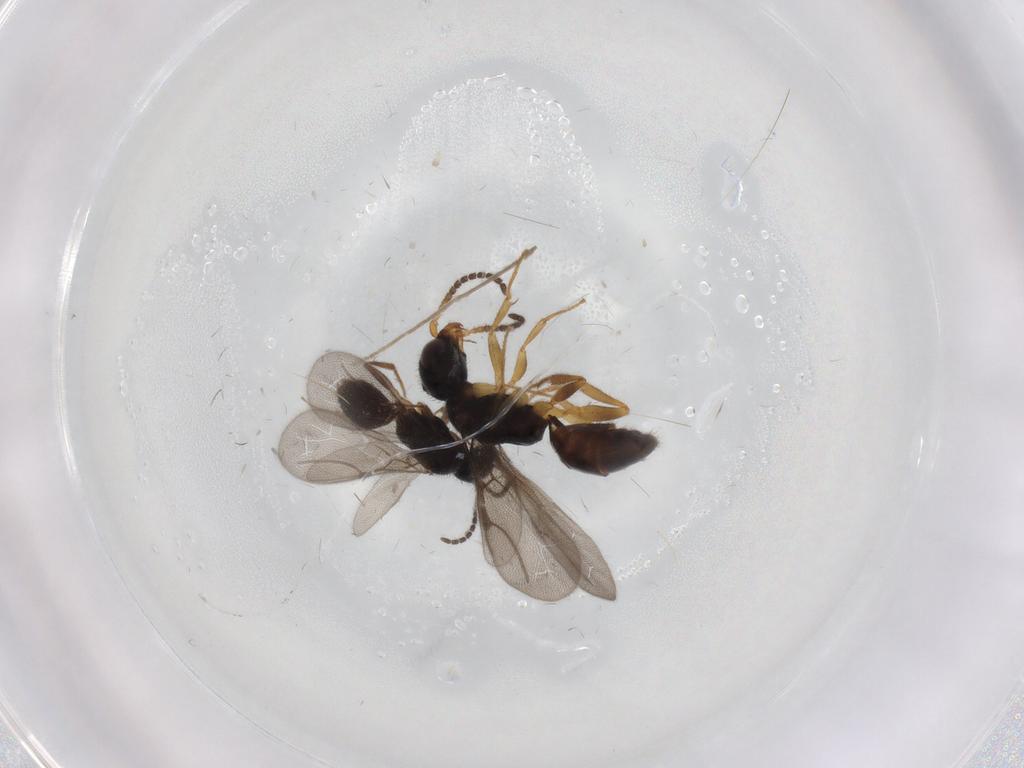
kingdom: Animalia
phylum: Arthropoda
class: Insecta
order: Hymenoptera
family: Bethylidae
